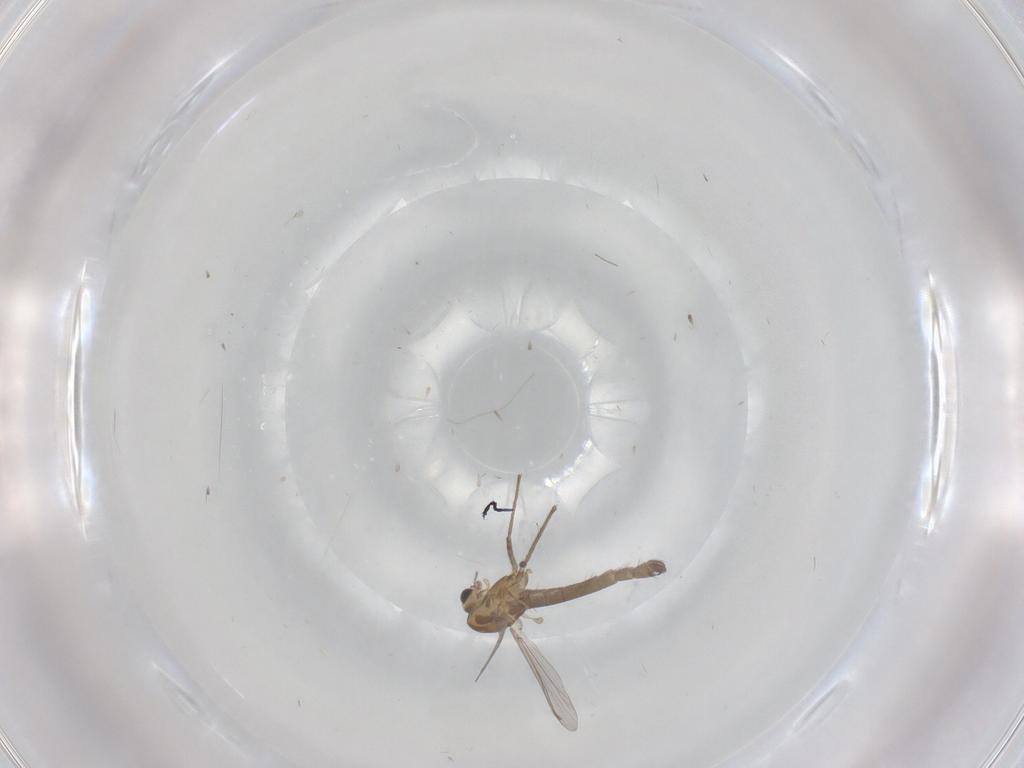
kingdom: Animalia
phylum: Arthropoda
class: Insecta
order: Diptera
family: Chironomidae
